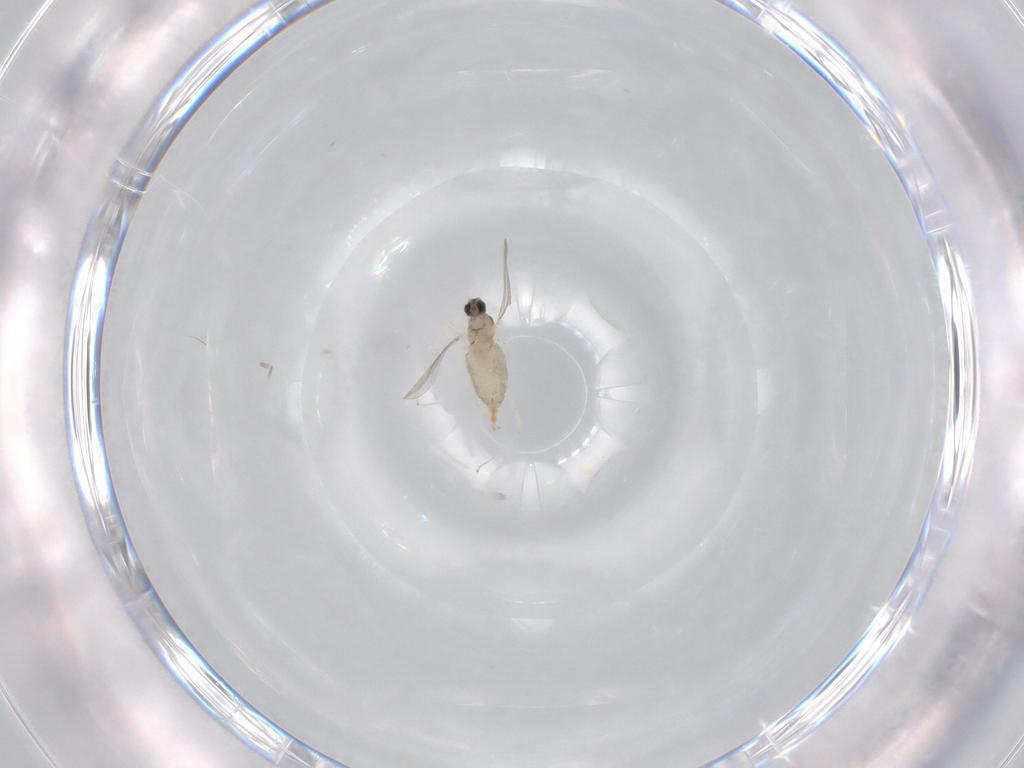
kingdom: Animalia
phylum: Arthropoda
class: Insecta
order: Diptera
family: Cecidomyiidae
